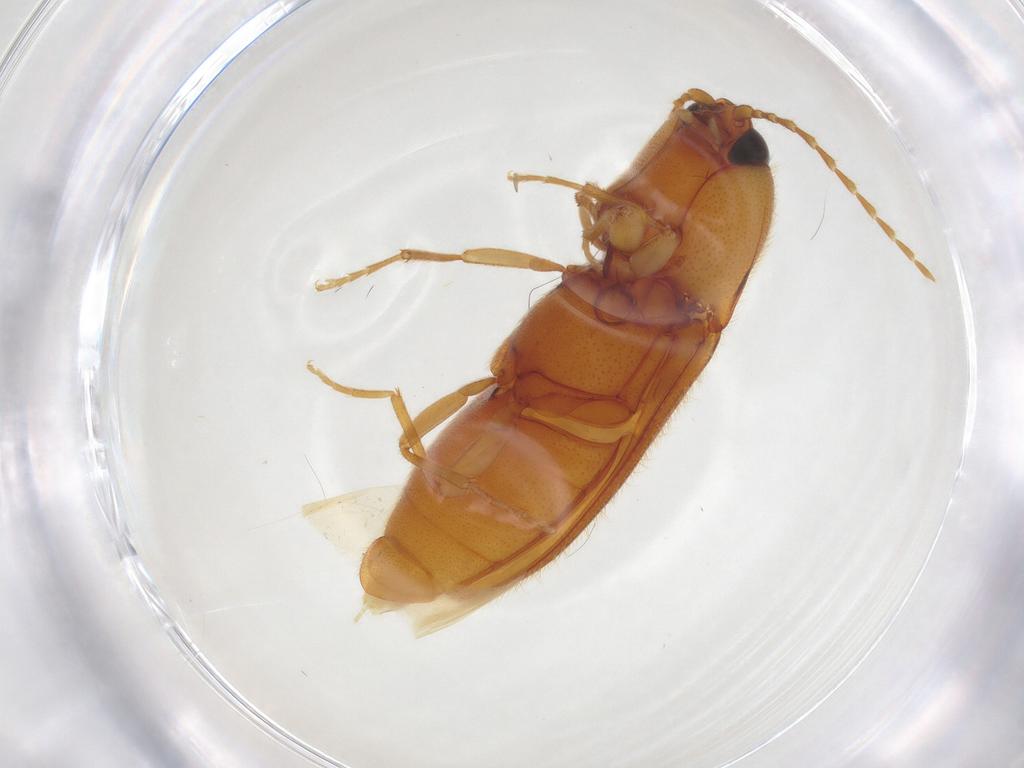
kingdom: Animalia
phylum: Arthropoda
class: Insecta
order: Coleoptera
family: Elateridae
